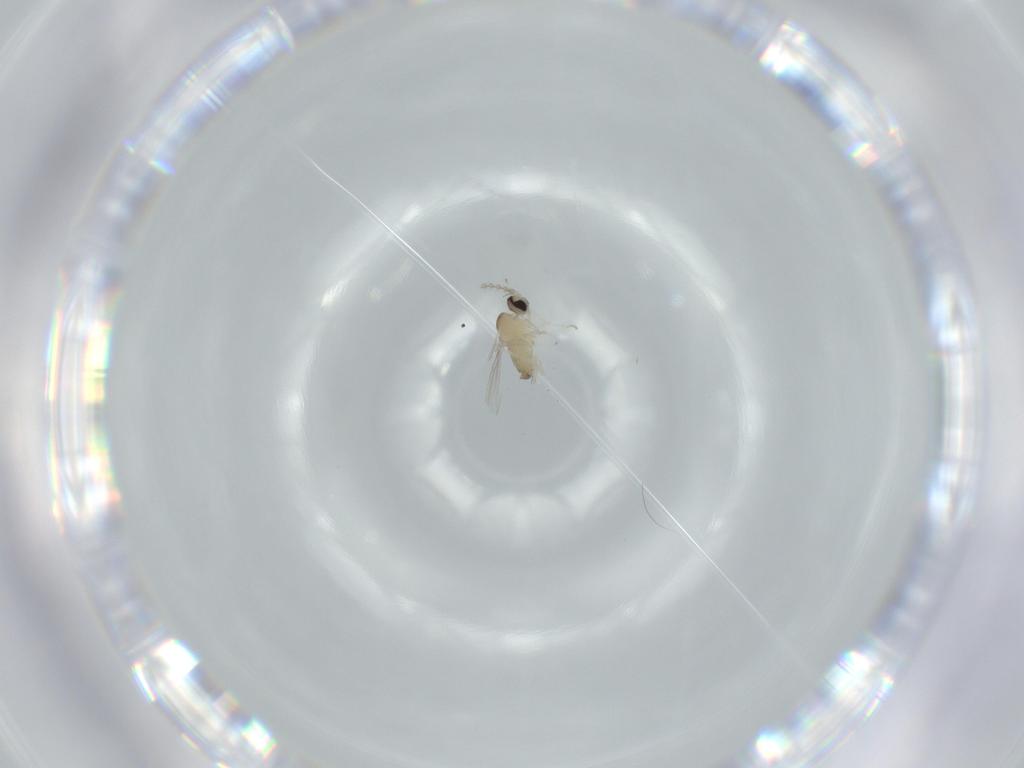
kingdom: Animalia
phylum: Arthropoda
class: Insecta
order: Diptera
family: Cecidomyiidae
